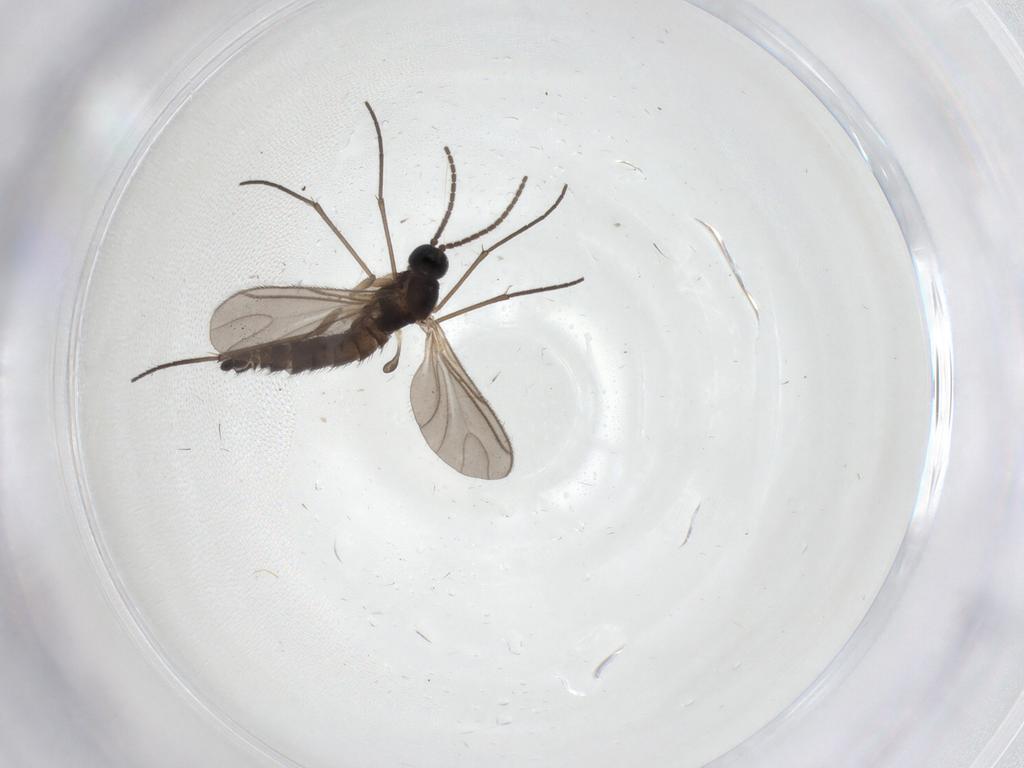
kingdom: Animalia
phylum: Arthropoda
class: Insecta
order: Diptera
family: Sciaridae
